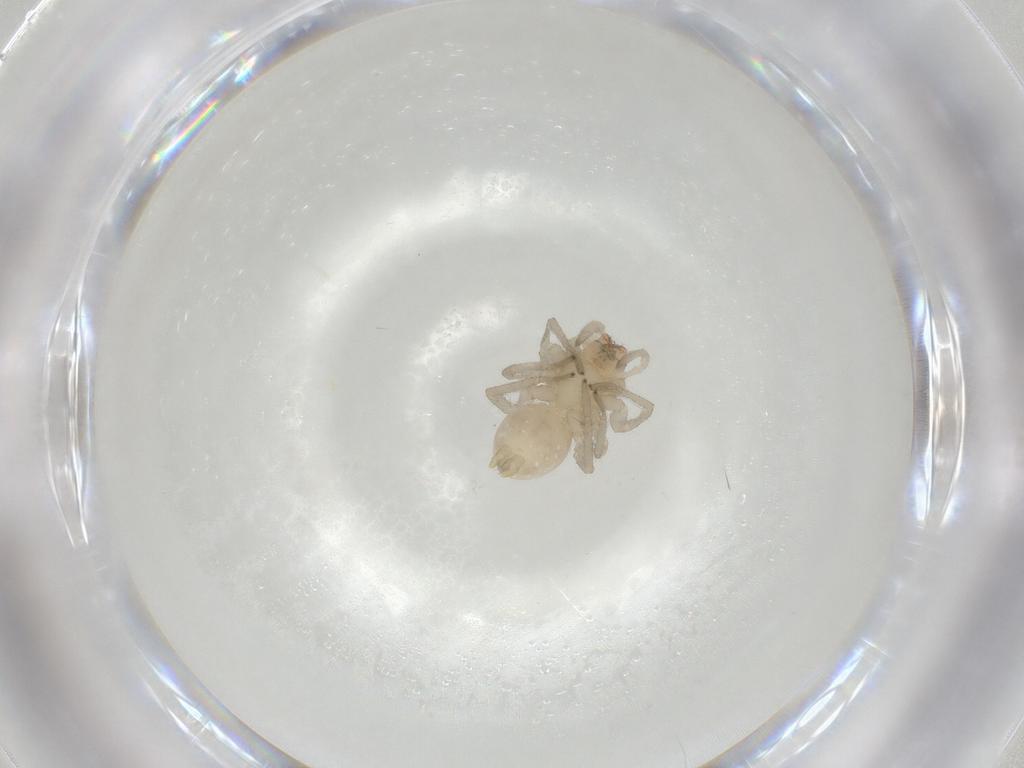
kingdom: Animalia
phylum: Arthropoda
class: Arachnida
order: Araneae
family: Cheiracanthiidae
